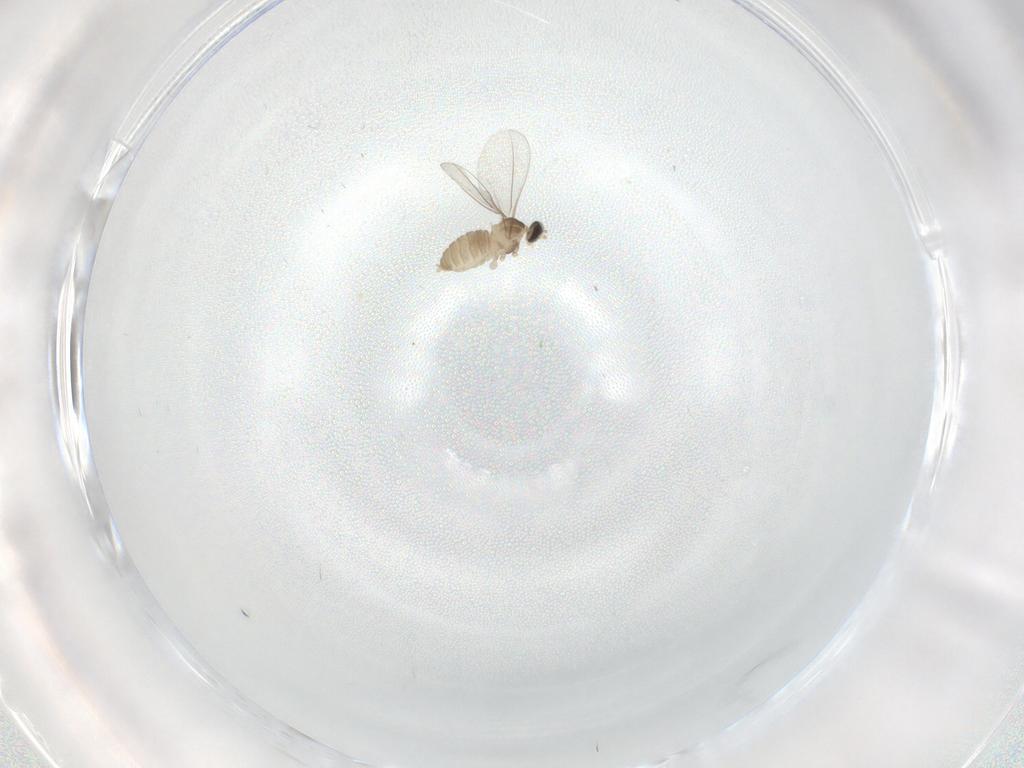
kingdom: Animalia
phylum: Arthropoda
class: Insecta
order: Diptera
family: Cecidomyiidae
